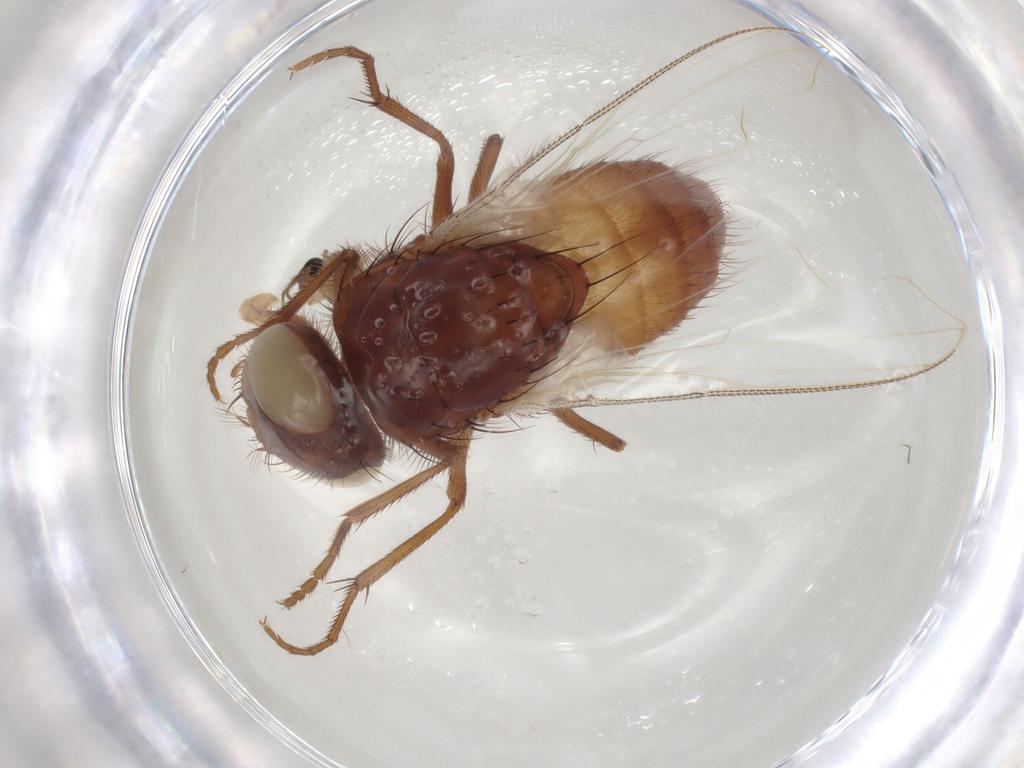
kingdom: Animalia
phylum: Arthropoda
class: Insecta
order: Diptera
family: Ceratopogonidae
